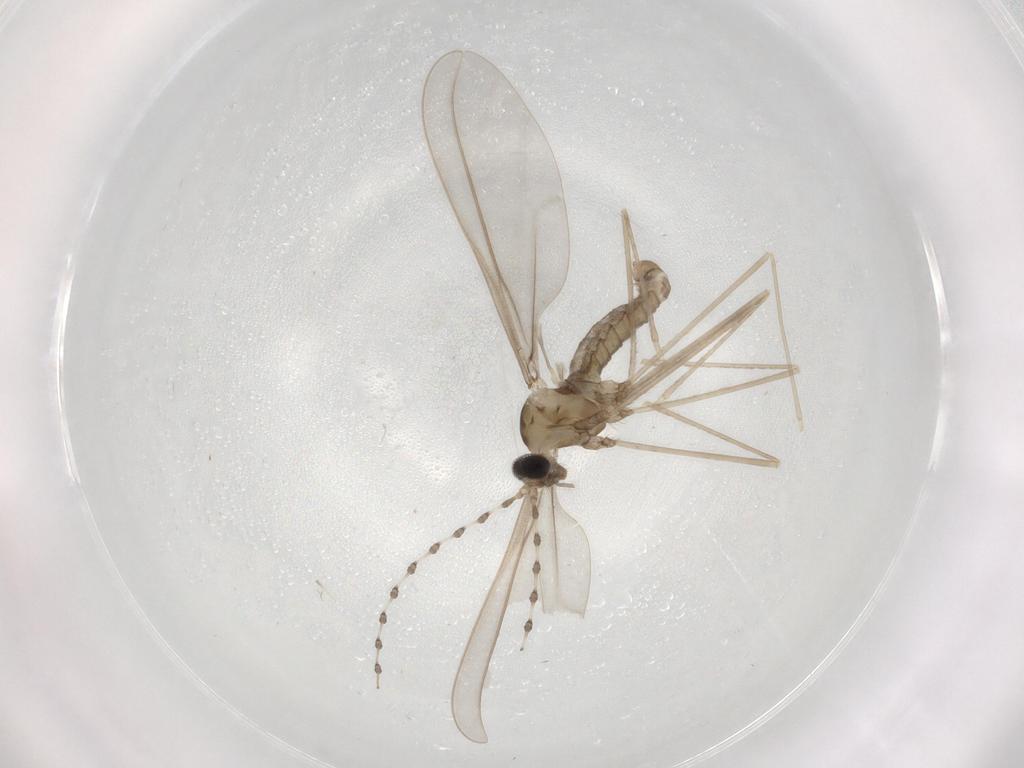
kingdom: Animalia
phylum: Arthropoda
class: Insecta
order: Diptera
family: Cecidomyiidae
